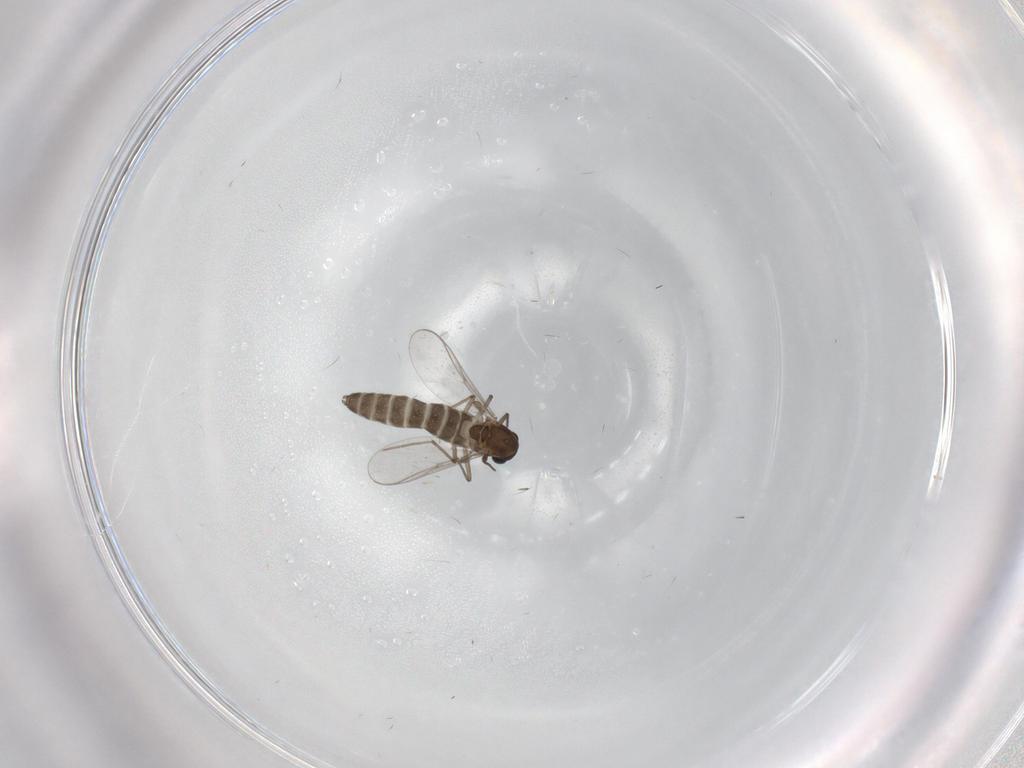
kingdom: Animalia
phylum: Arthropoda
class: Insecta
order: Diptera
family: Chironomidae
